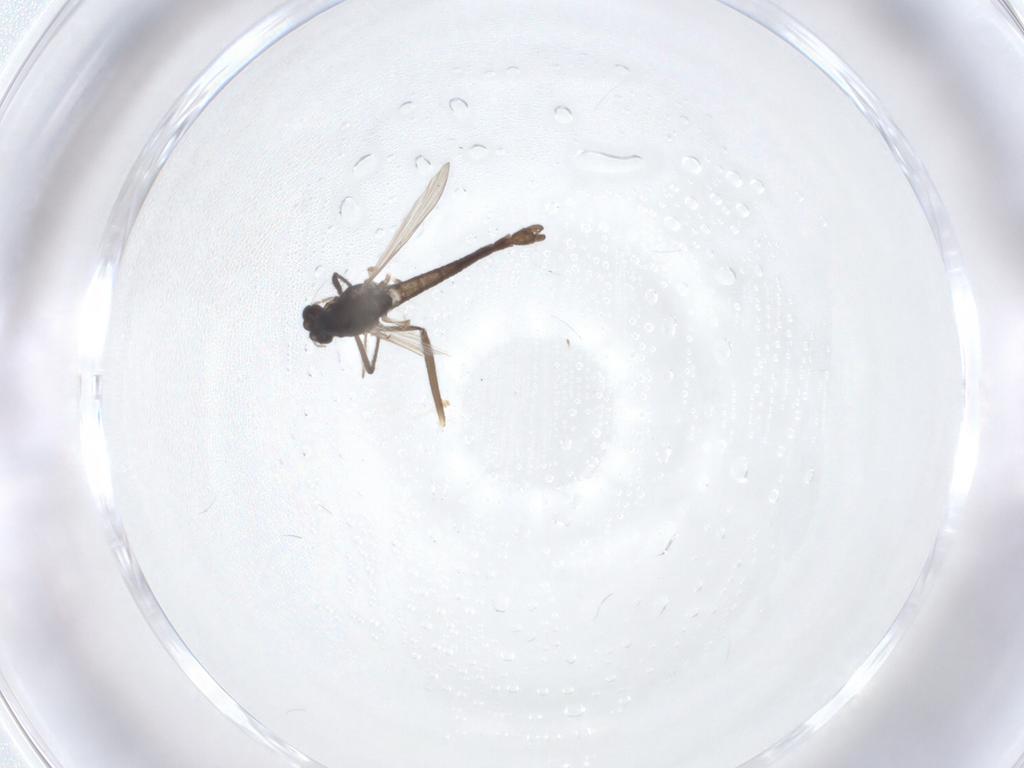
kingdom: Animalia
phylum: Arthropoda
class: Insecta
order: Diptera
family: Chironomidae
